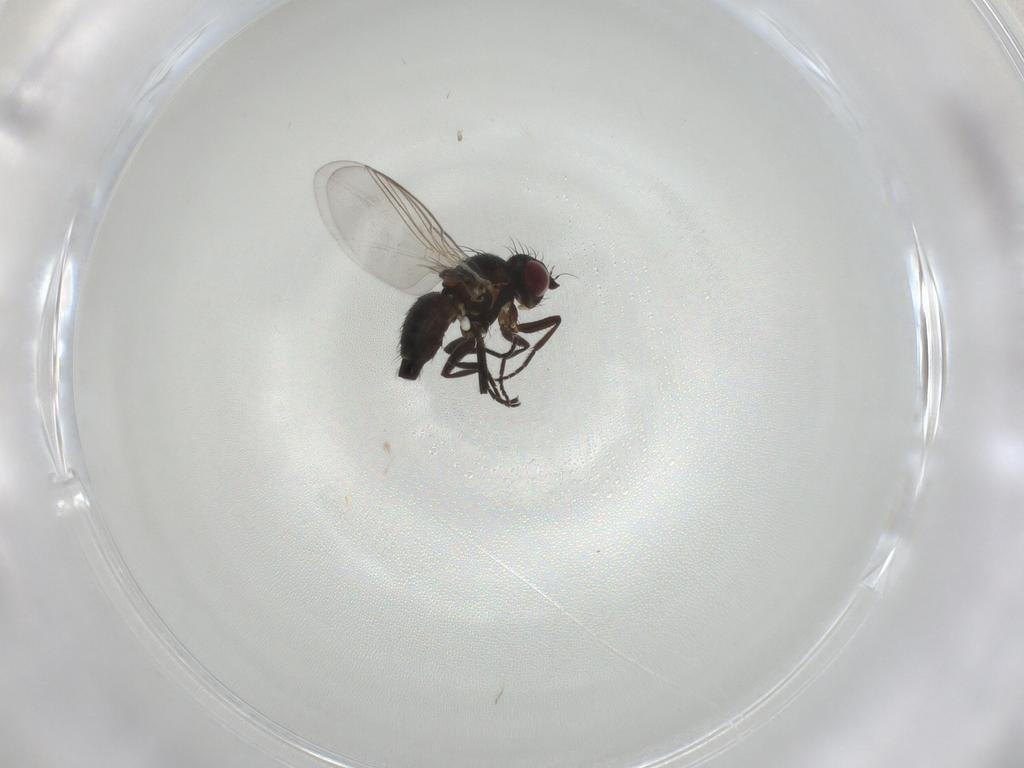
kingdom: Animalia
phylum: Arthropoda
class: Insecta
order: Diptera
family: Agromyzidae
